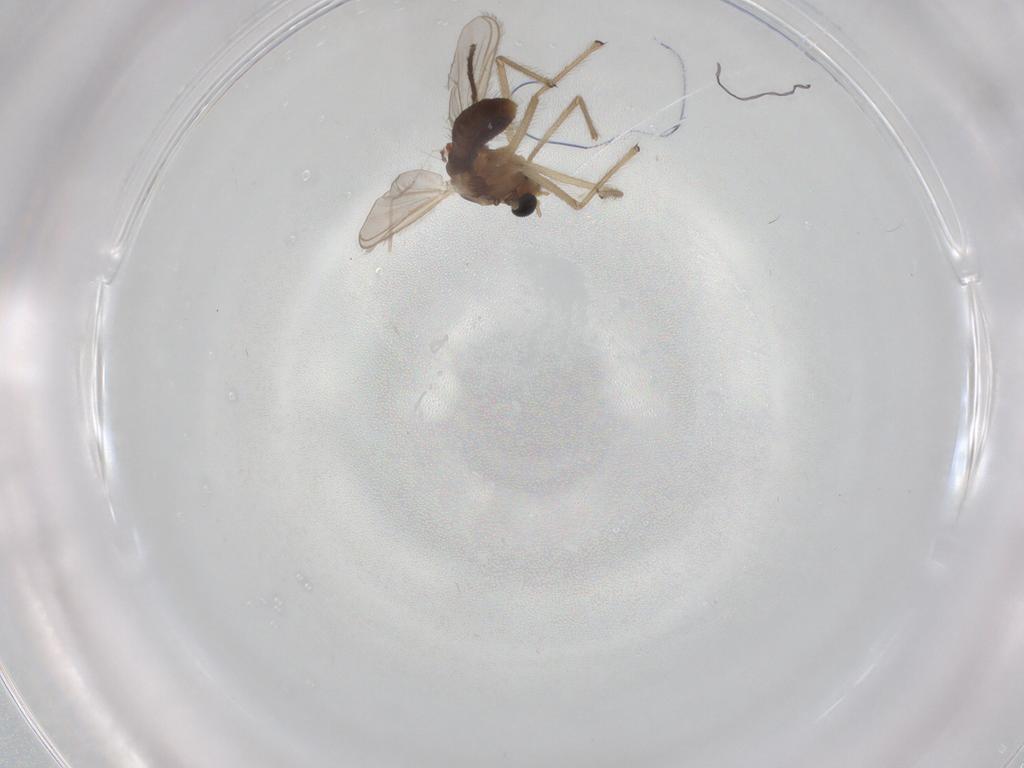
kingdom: Animalia
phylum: Arthropoda
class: Insecta
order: Diptera
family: Chironomidae
